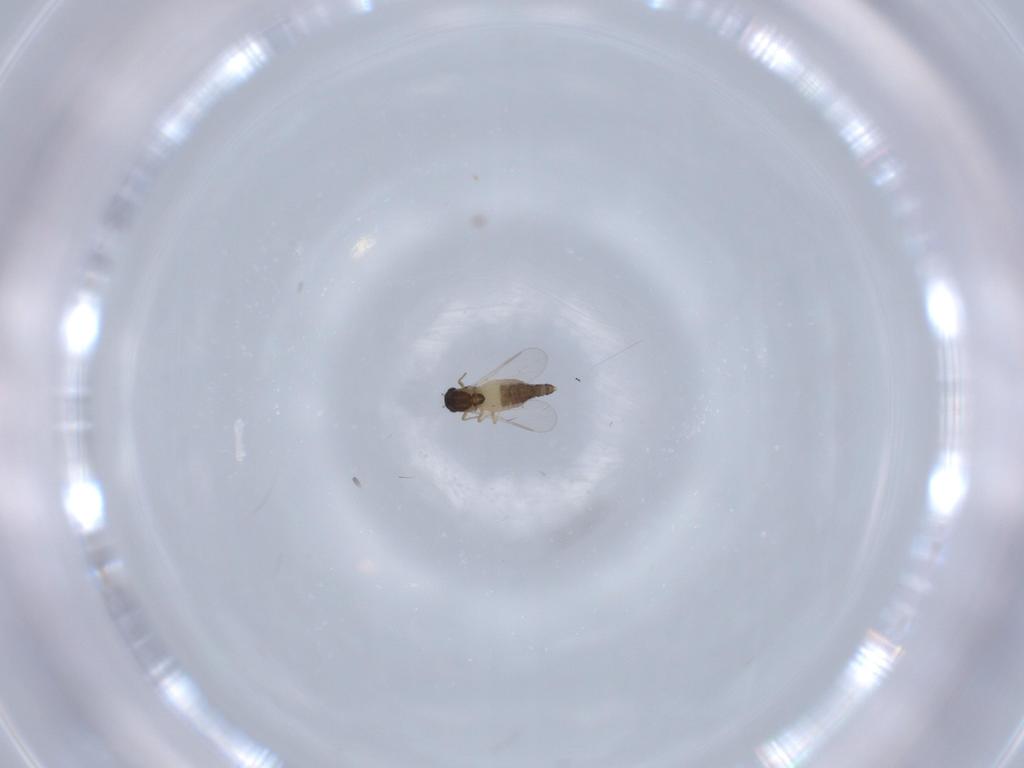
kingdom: Animalia
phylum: Arthropoda
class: Insecta
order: Diptera
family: Chironomidae
